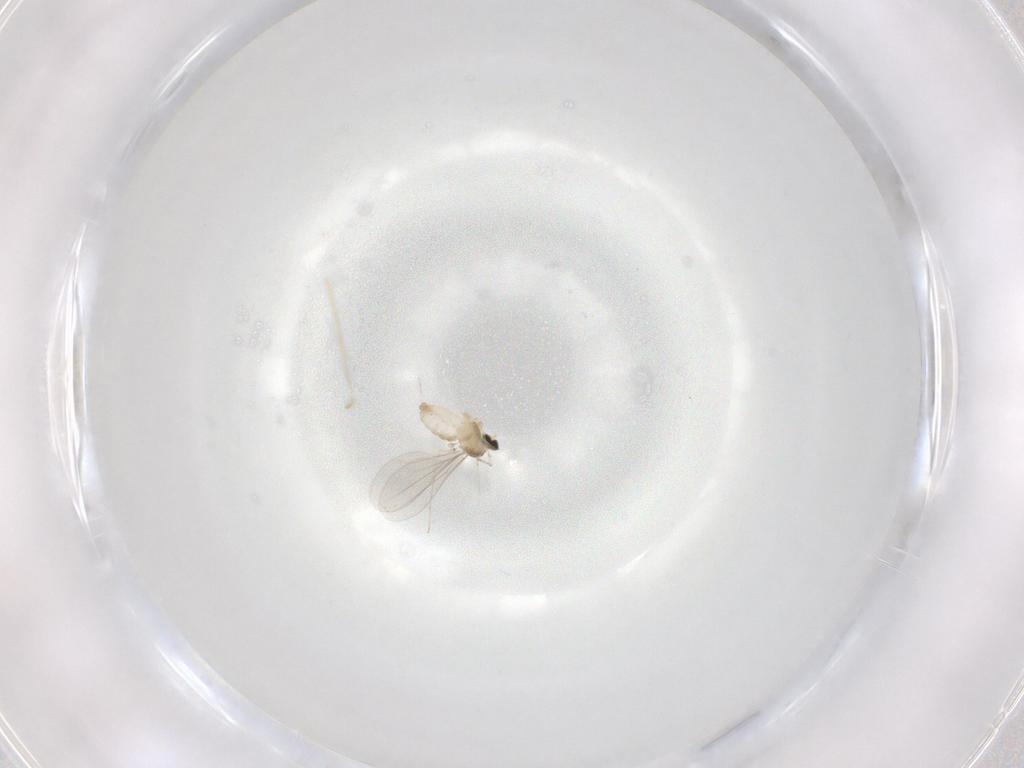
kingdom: Animalia
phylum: Arthropoda
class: Insecta
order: Diptera
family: Cecidomyiidae
